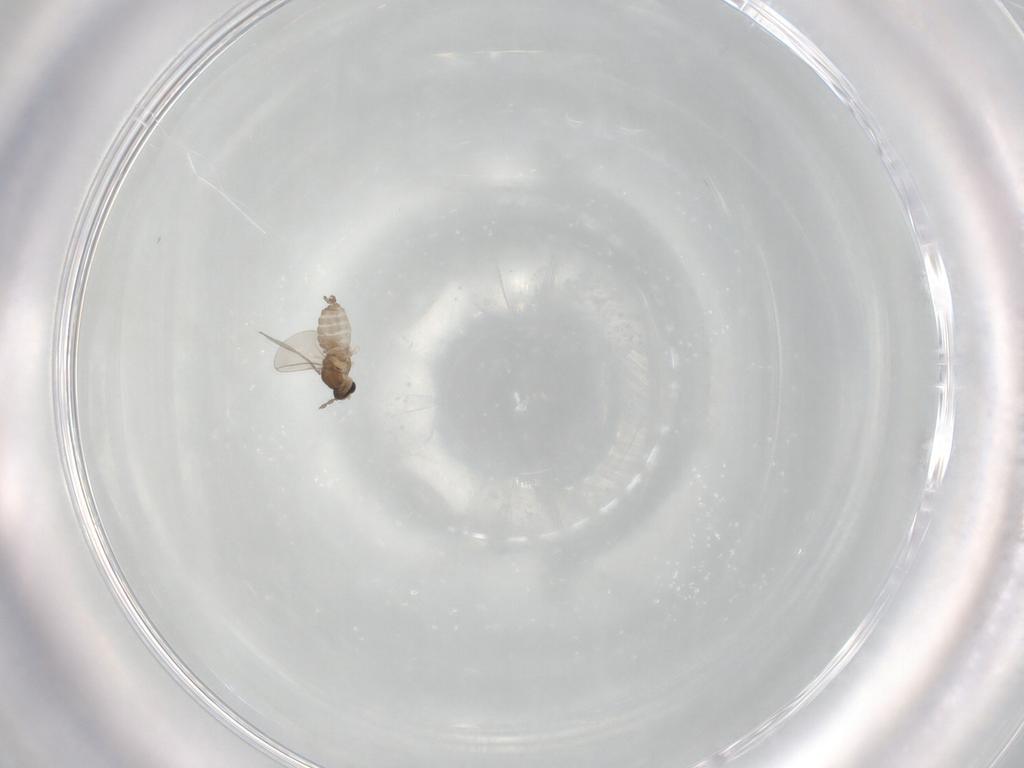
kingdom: Animalia
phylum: Arthropoda
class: Insecta
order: Diptera
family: Cecidomyiidae
